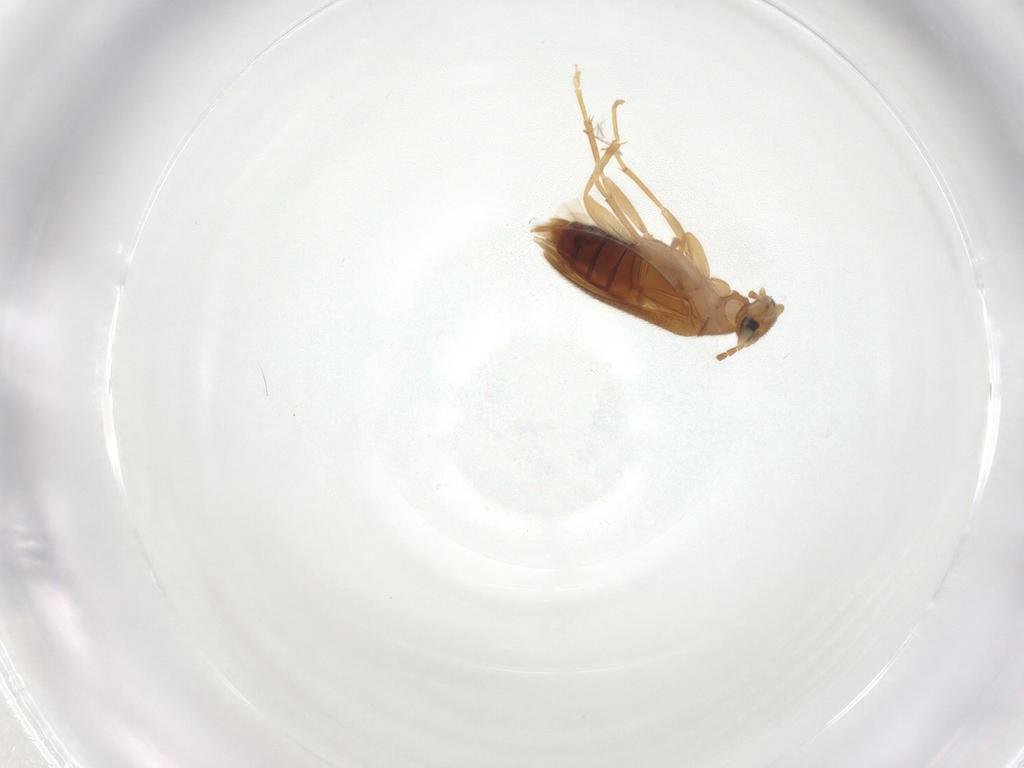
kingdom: Animalia
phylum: Arthropoda
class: Insecta
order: Coleoptera
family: Scraptiidae
